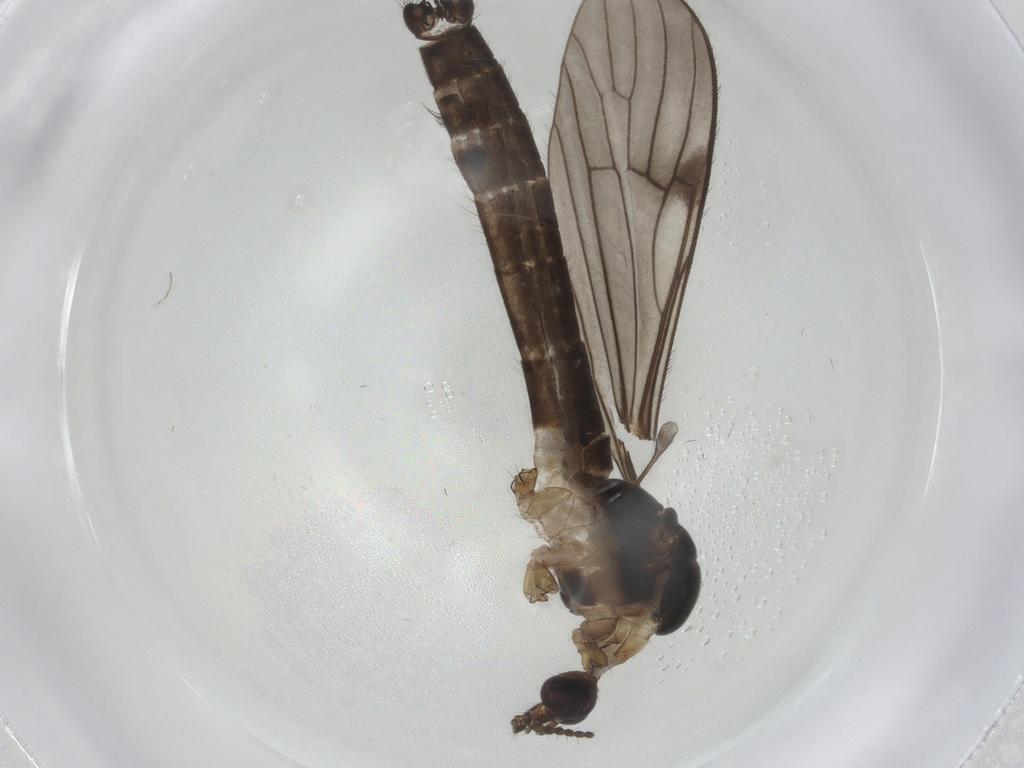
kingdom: Animalia
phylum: Arthropoda
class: Insecta
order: Diptera
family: Limoniidae
